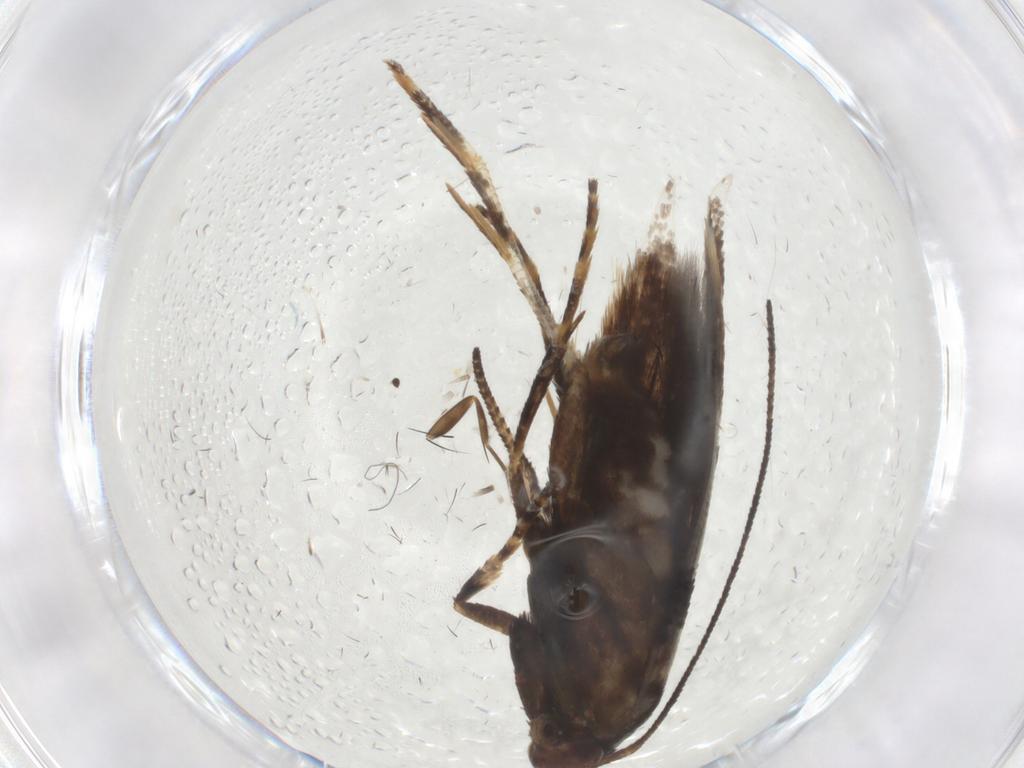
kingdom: Animalia
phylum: Arthropoda
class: Insecta
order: Lepidoptera
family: Momphidae
